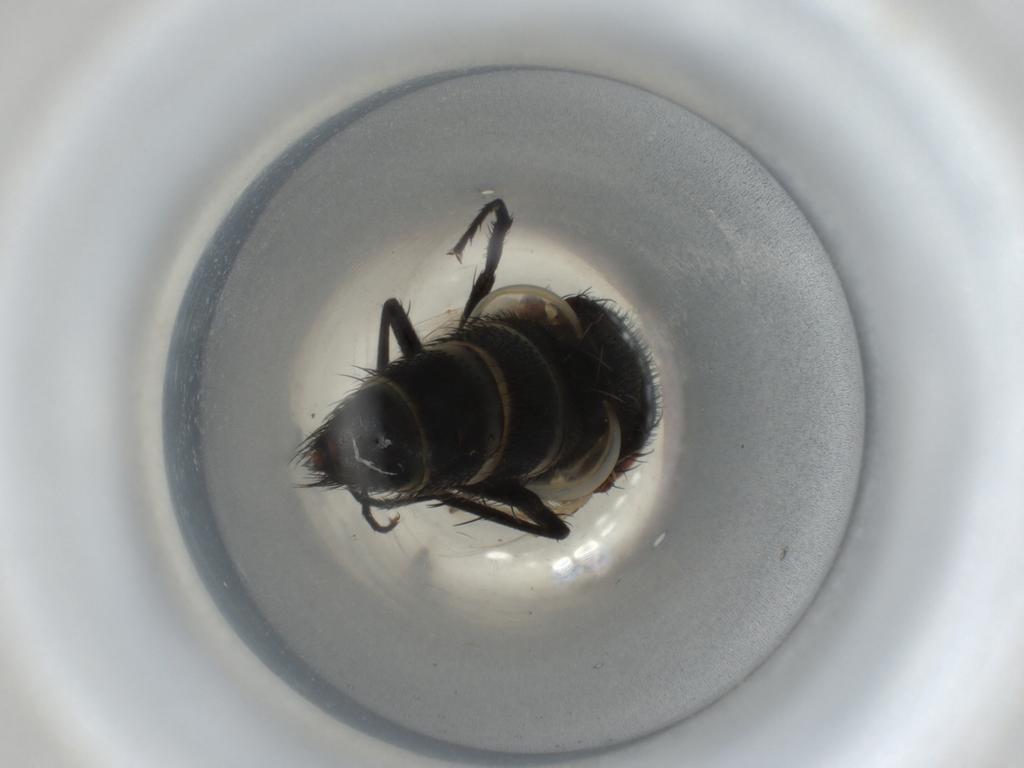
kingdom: Animalia
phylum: Arthropoda
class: Insecta
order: Diptera
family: Sarcophagidae
